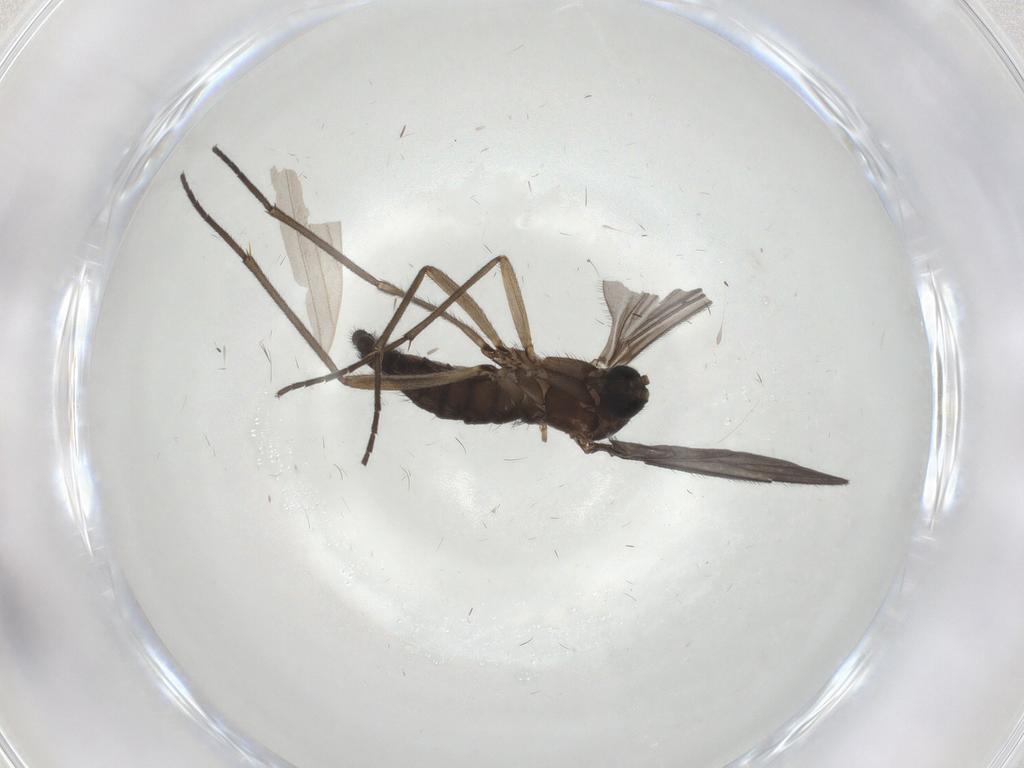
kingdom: Animalia
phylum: Arthropoda
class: Insecta
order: Diptera
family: Sciaridae
